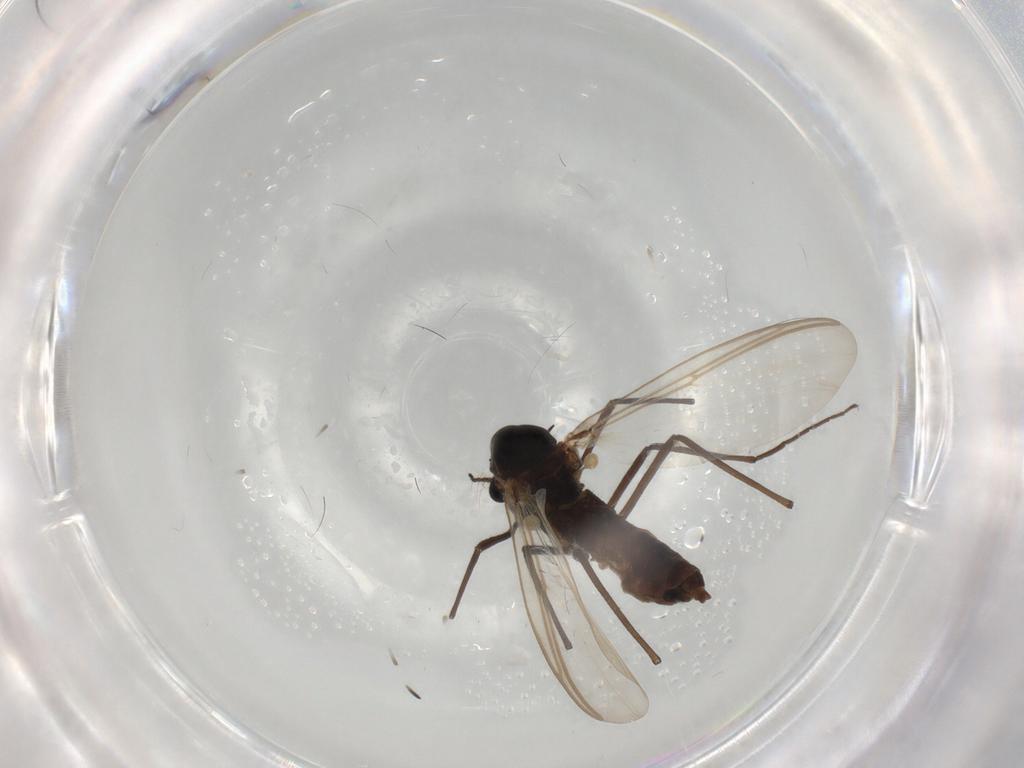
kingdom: Animalia
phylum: Arthropoda
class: Insecta
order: Diptera
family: Chironomidae
